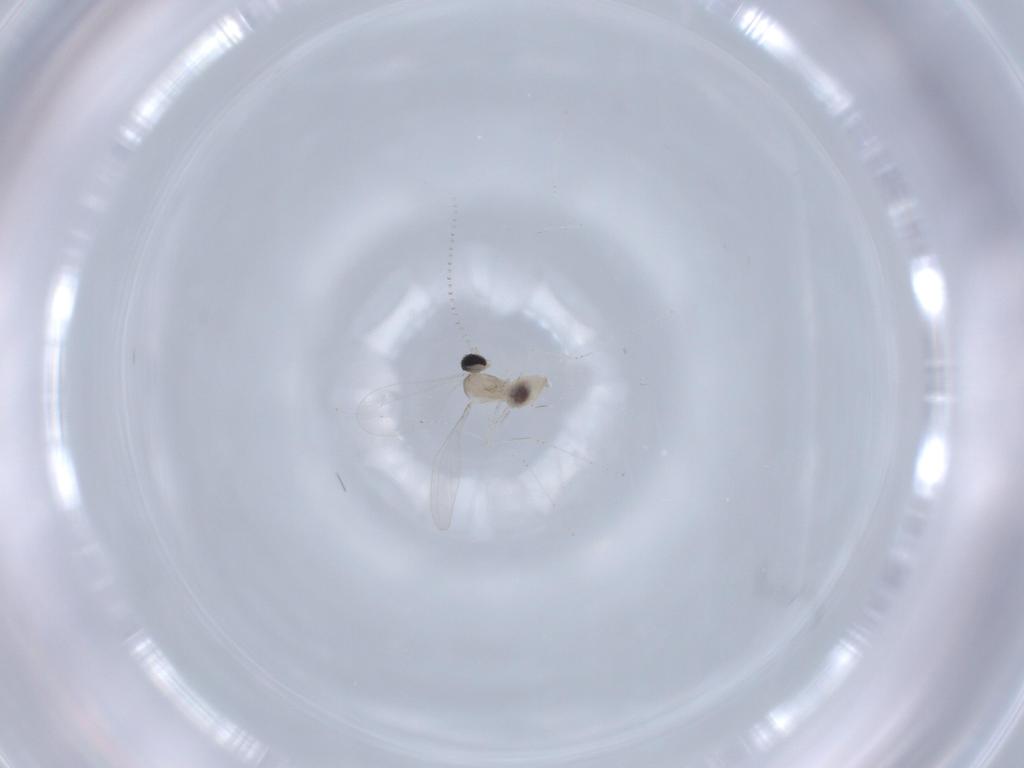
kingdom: Animalia
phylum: Arthropoda
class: Insecta
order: Diptera
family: Cecidomyiidae
